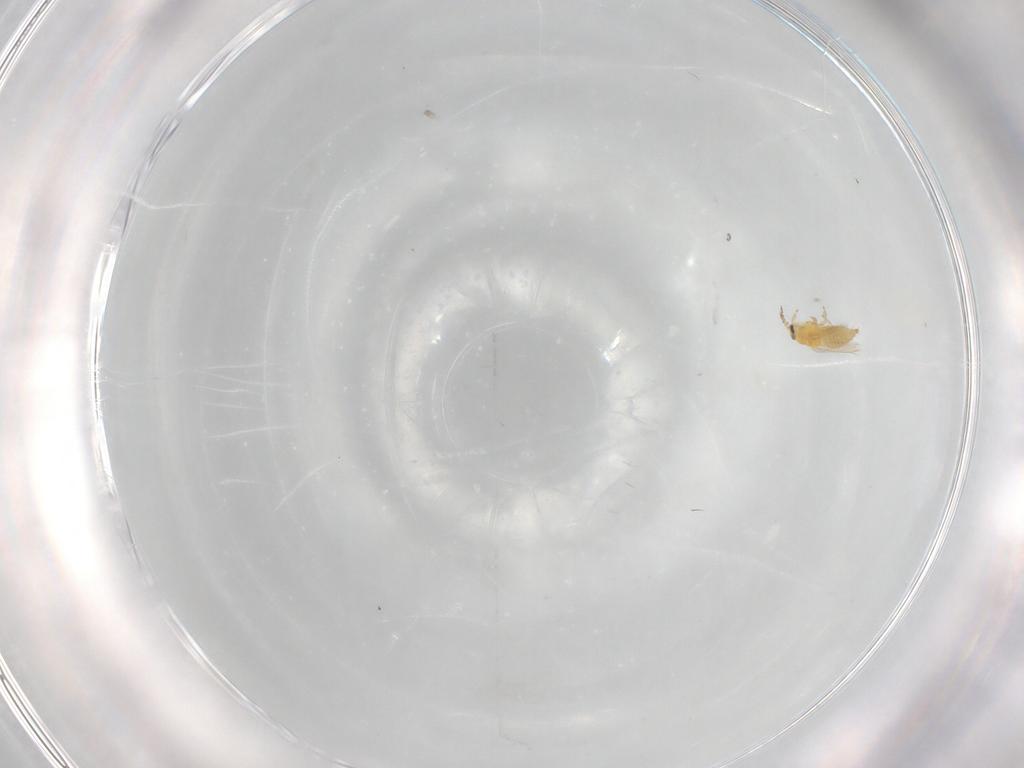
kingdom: Animalia
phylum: Arthropoda
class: Insecta
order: Thysanoptera
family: Thripidae
